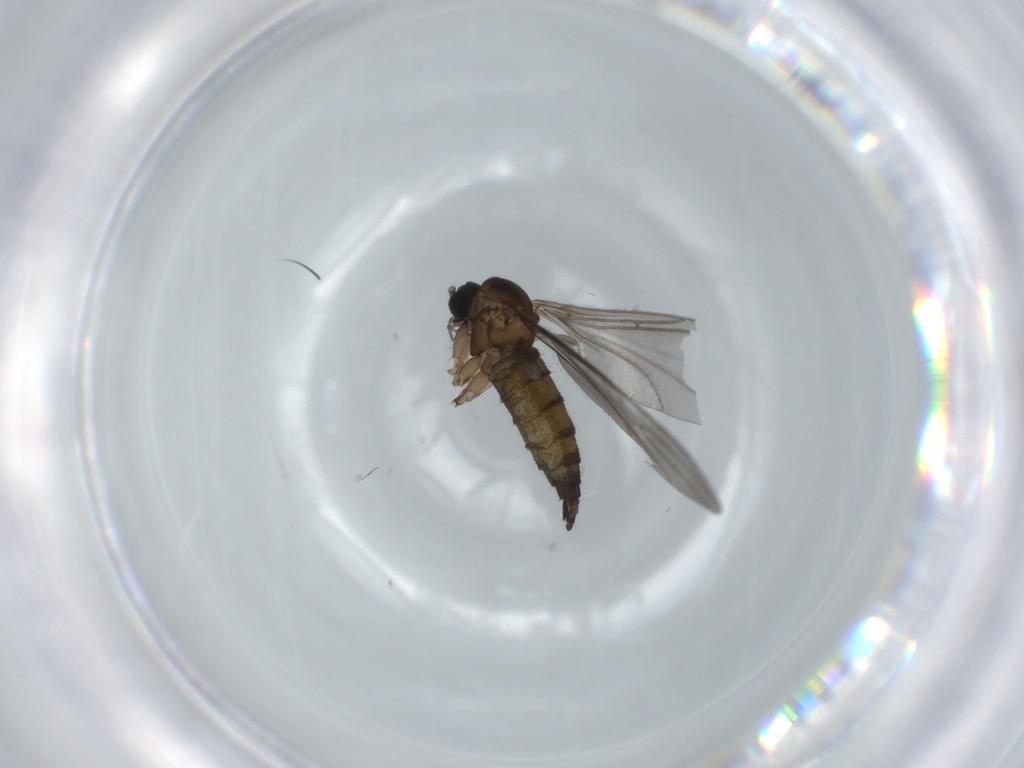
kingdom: Animalia
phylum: Arthropoda
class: Insecta
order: Diptera
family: Sciaridae
